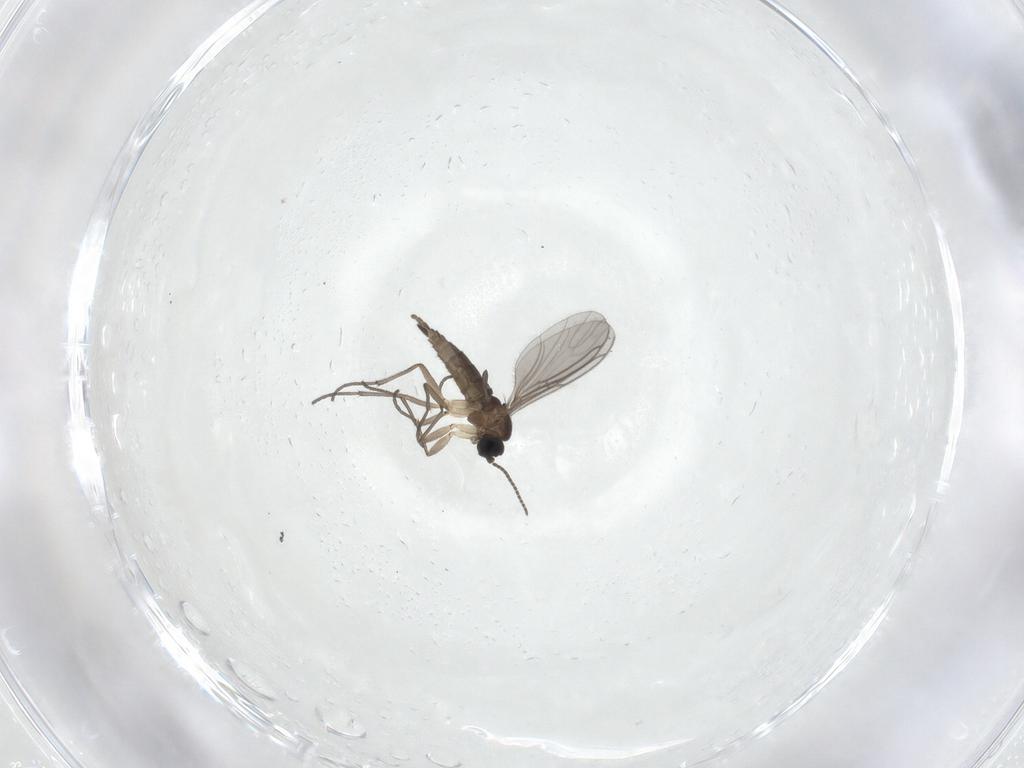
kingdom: Animalia
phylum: Arthropoda
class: Insecta
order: Diptera
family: Sciaridae
